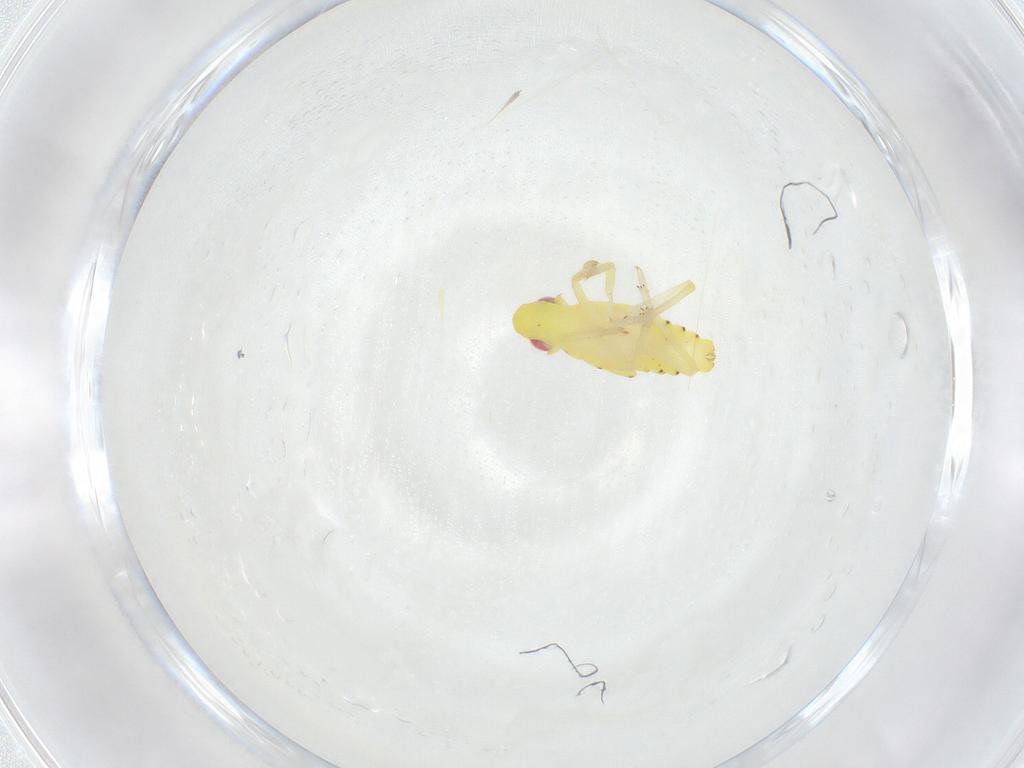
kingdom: Animalia
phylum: Arthropoda
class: Insecta
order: Hemiptera
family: Tropiduchidae
